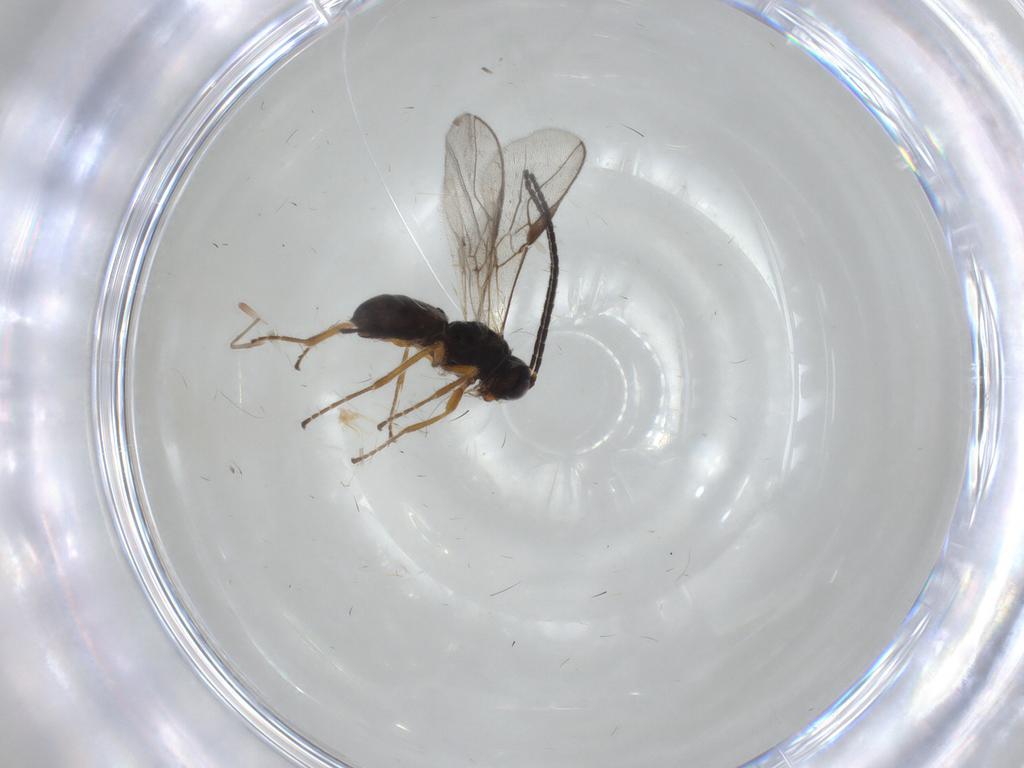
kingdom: Animalia
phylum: Arthropoda
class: Insecta
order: Hymenoptera
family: Braconidae
